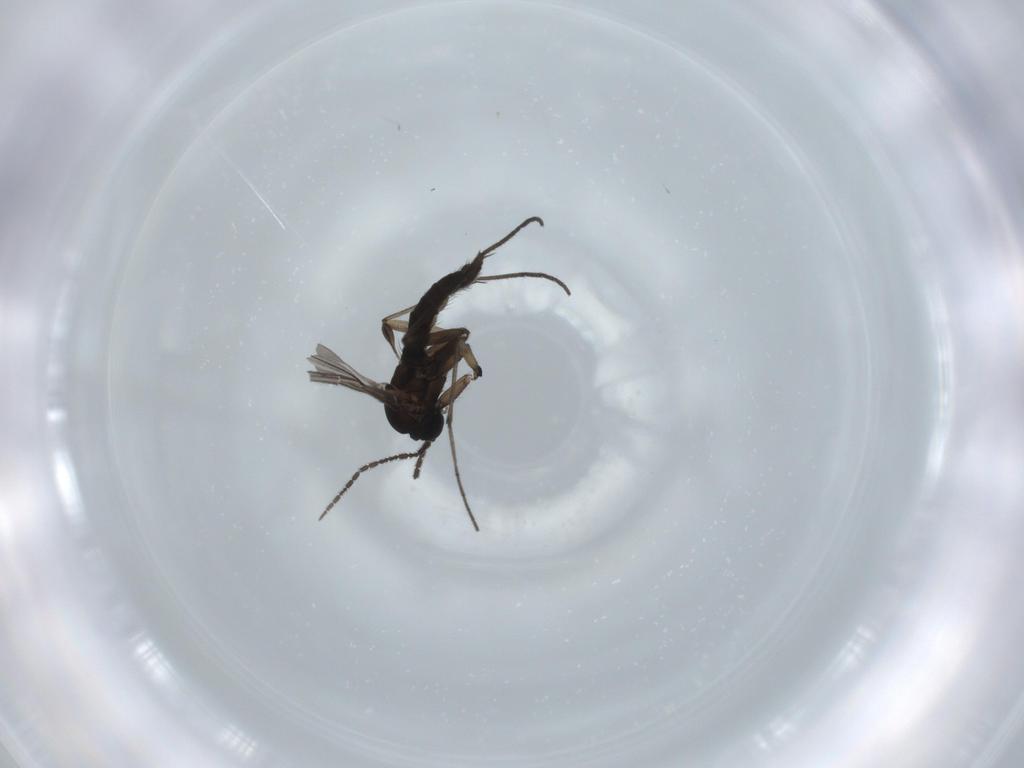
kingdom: Animalia
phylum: Arthropoda
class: Insecta
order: Diptera
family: Sciaridae
